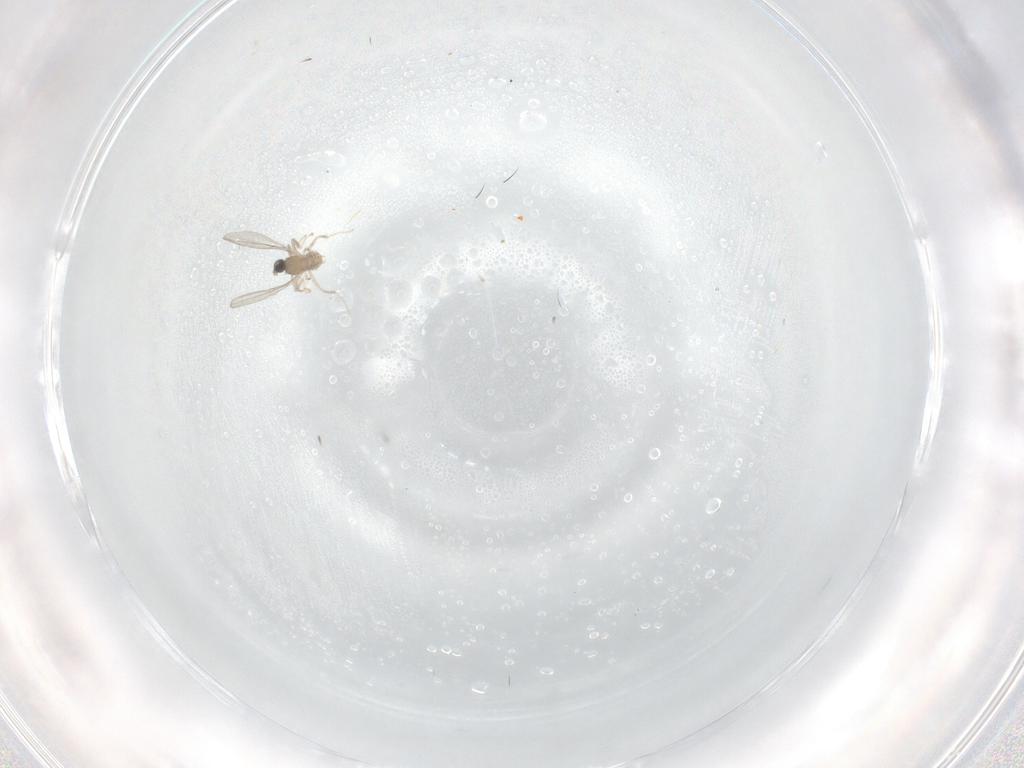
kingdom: Animalia
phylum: Arthropoda
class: Insecta
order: Diptera
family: Cecidomyiidae
